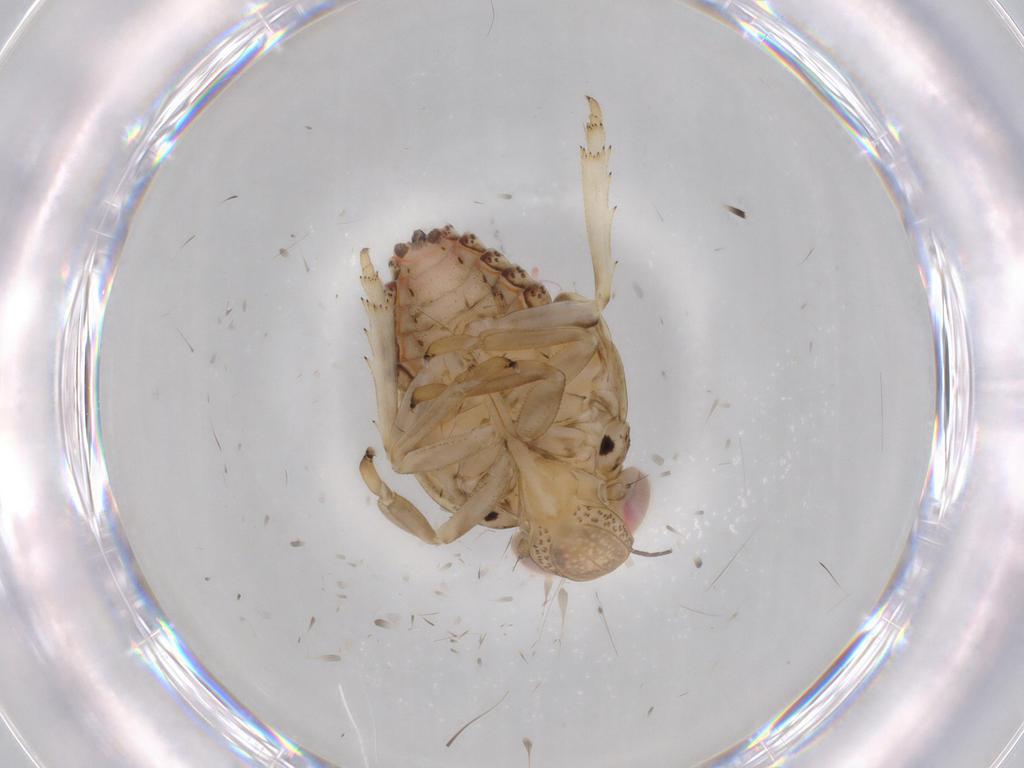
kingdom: Animalia
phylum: Arthropoda
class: Insecta
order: Hemiptera
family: Issidae
